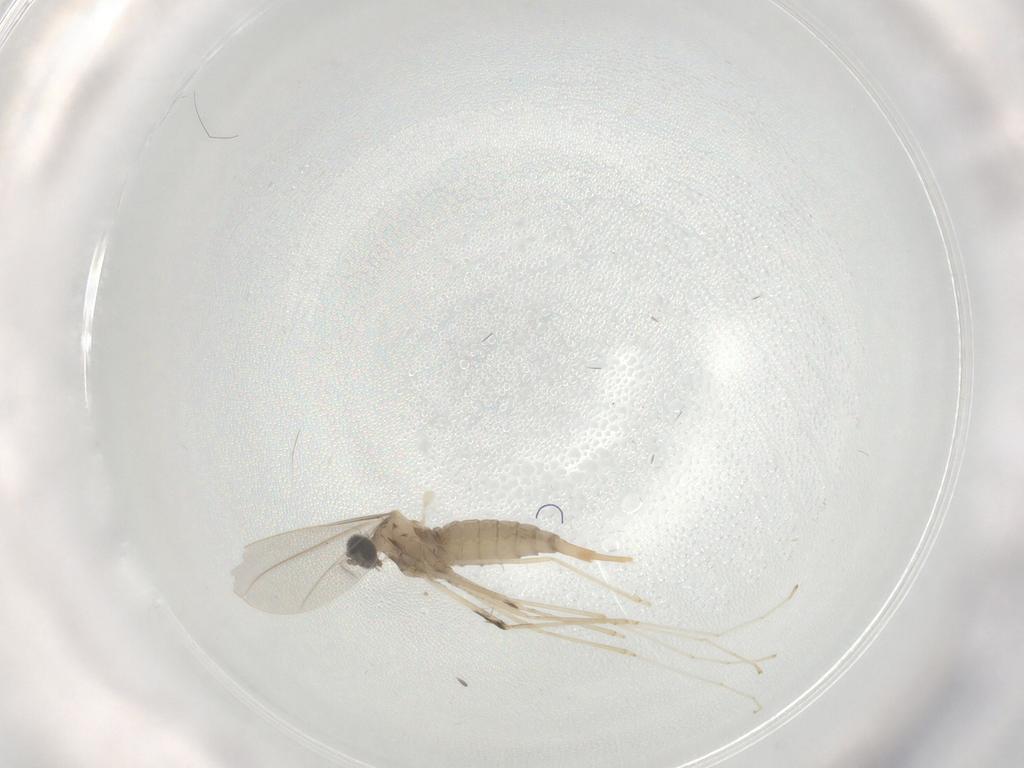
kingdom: Animalia
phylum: Arthropoda
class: Insecta
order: Diptera
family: Cecidomyiidae
